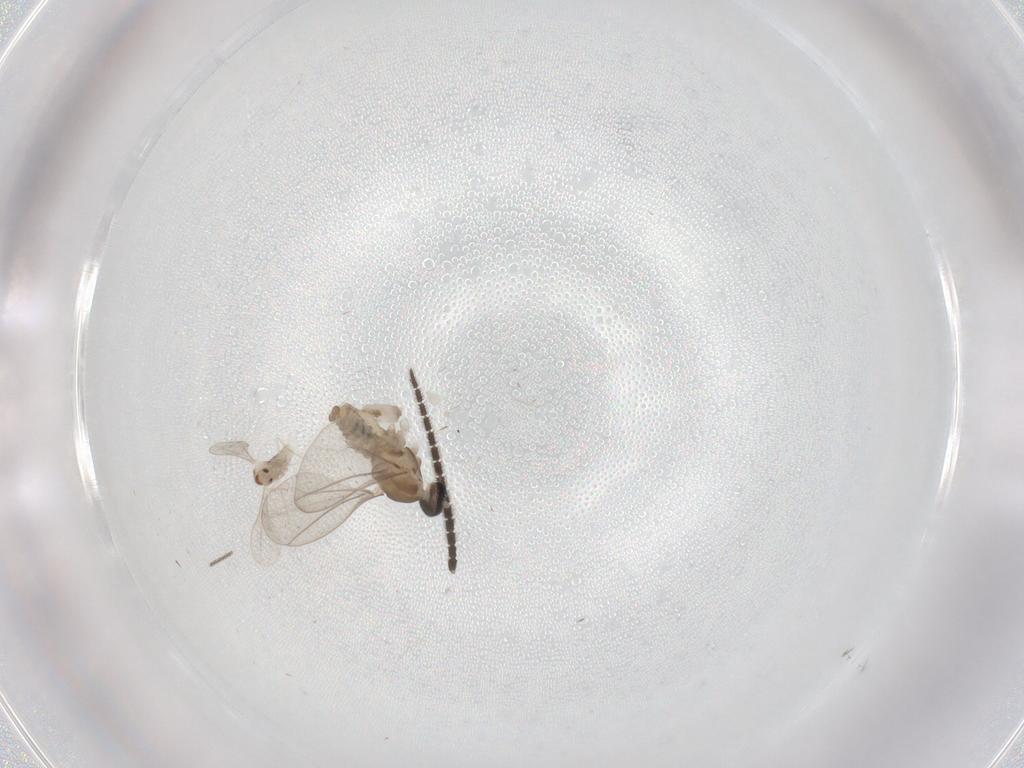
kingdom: Animalia
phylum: Arthropoda
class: Insecta
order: Diptera
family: Cecidomyiidae
